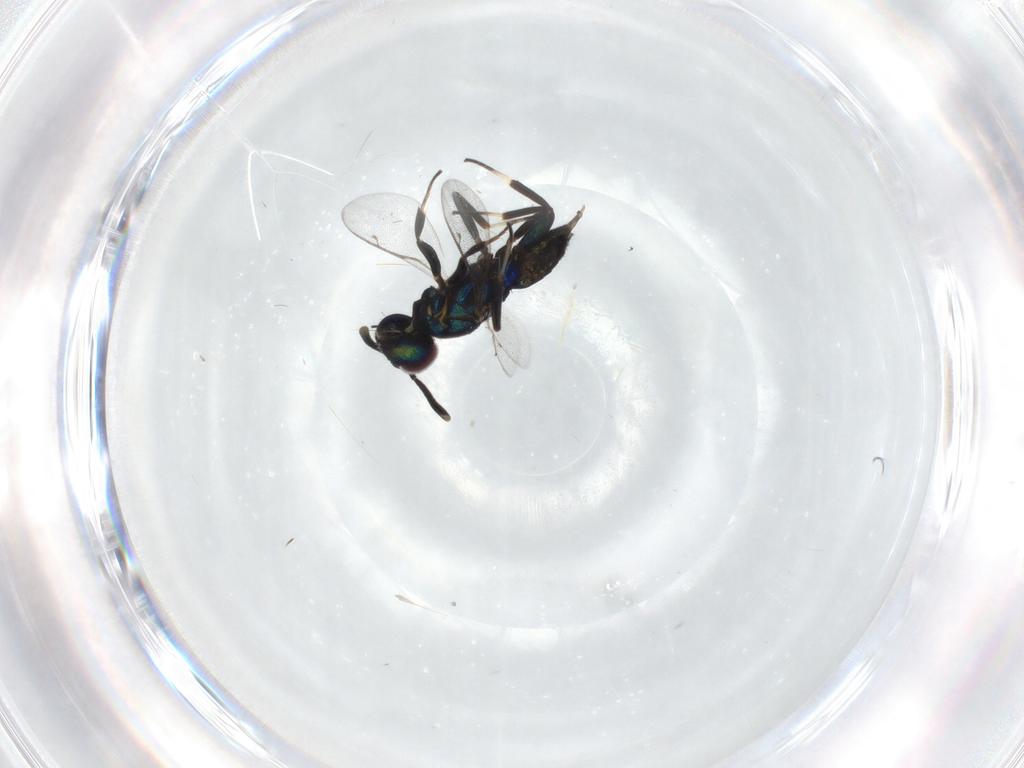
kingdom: Animalia
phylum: Arthropoda
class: Insecta
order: Hymenoptera
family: Eupelmidae
